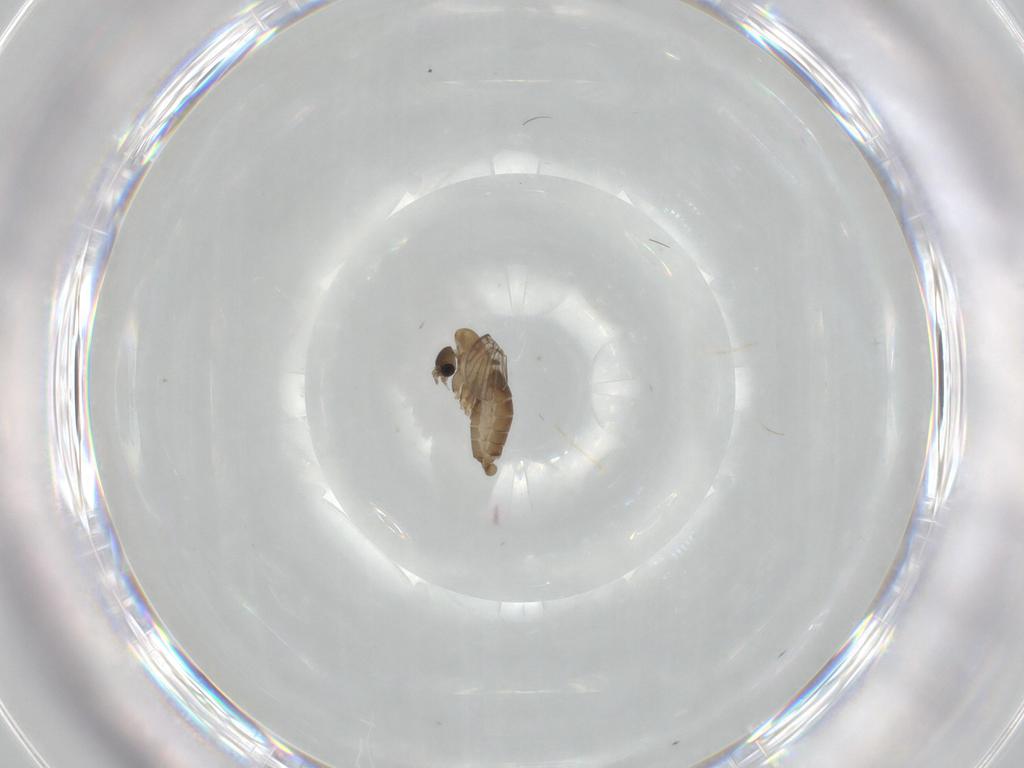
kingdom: Animalia
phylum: Arthropoda
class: Insecta
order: Diptera
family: Psychodidae
